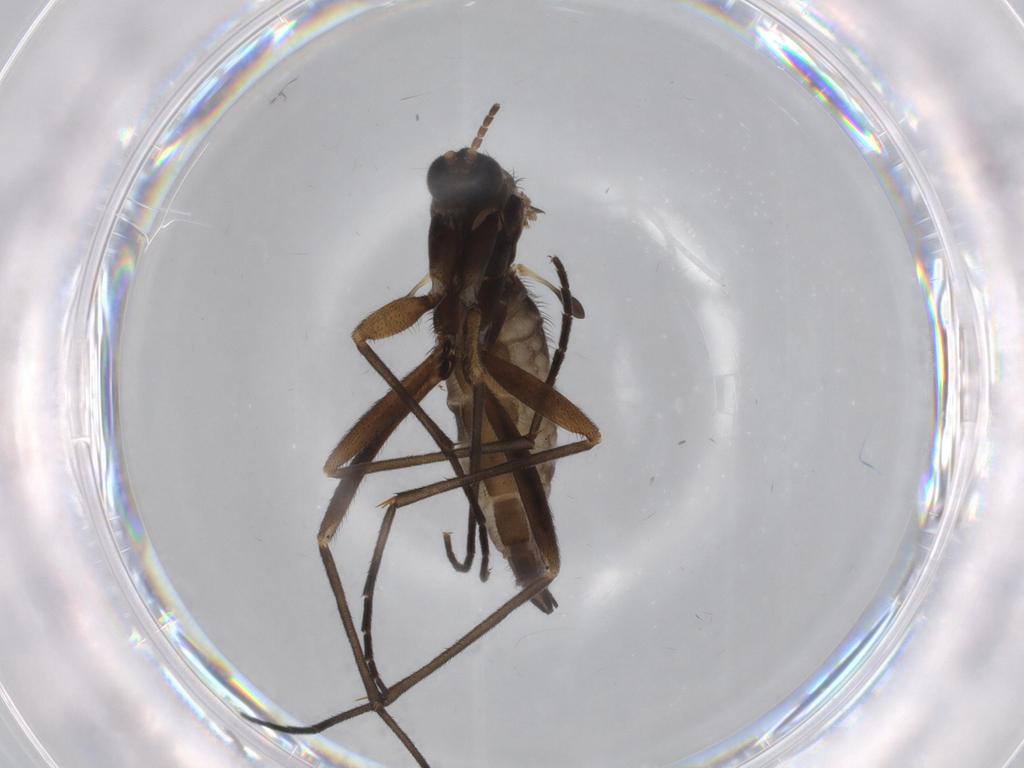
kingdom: Animalia
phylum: Arthropoda
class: Insecta
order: Diptera
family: Sciaridae
